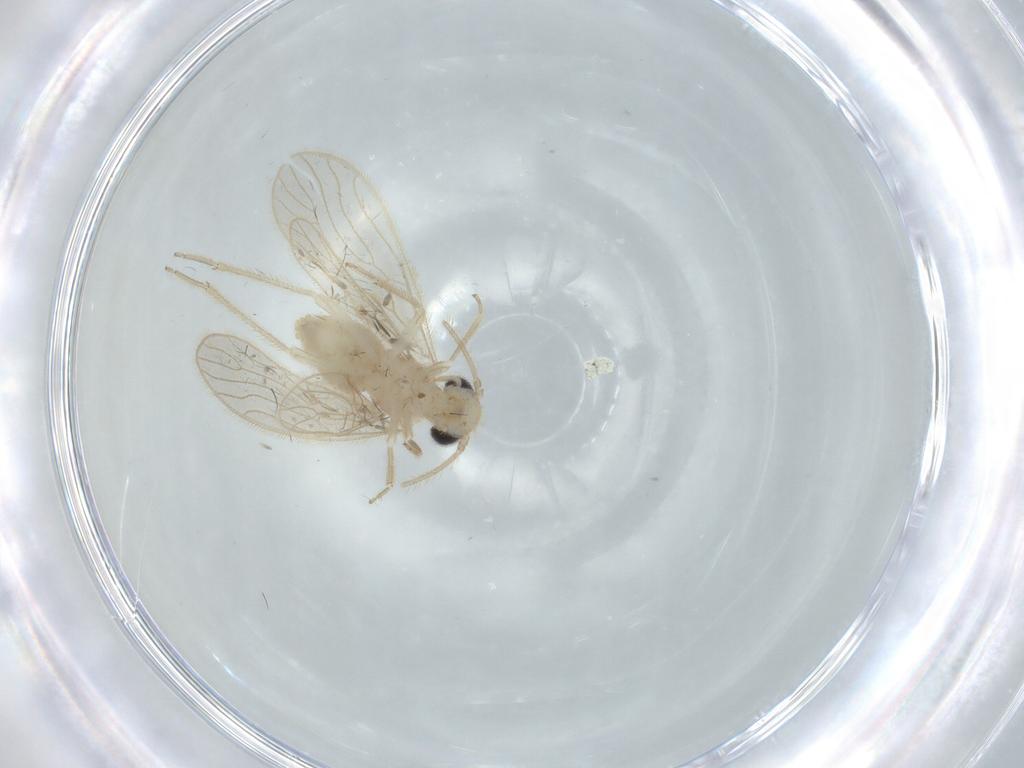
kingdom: Animalia
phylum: Arthropoda
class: Insecta
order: Psocodea
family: Cladiopsocidae
